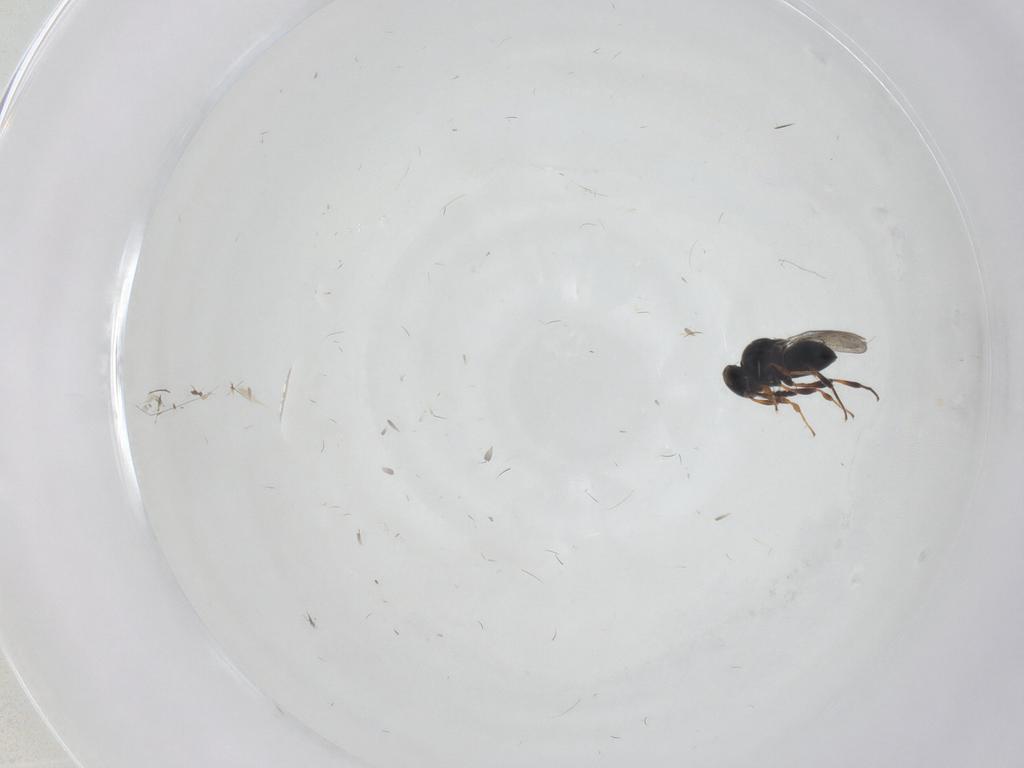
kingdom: Animalia
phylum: Arthropoda
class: Insecta
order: Hymenoptera
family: Platygastridae
